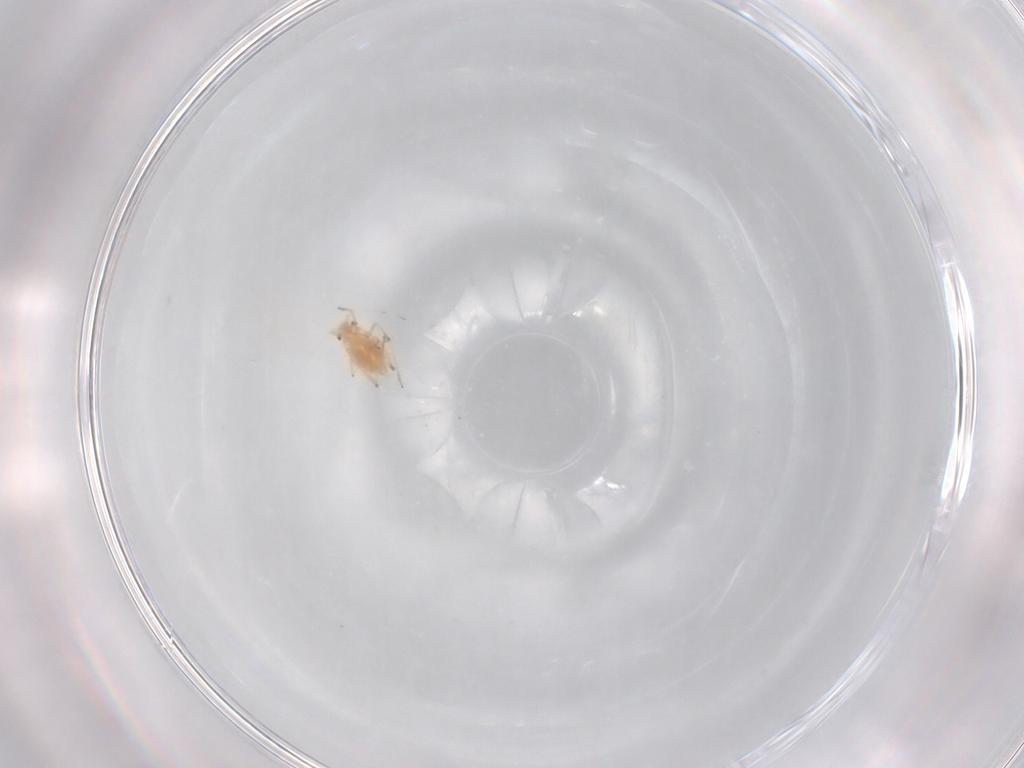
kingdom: Animalia
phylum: Arthropoda
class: Insecta
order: Hemiptera
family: Aphididae
